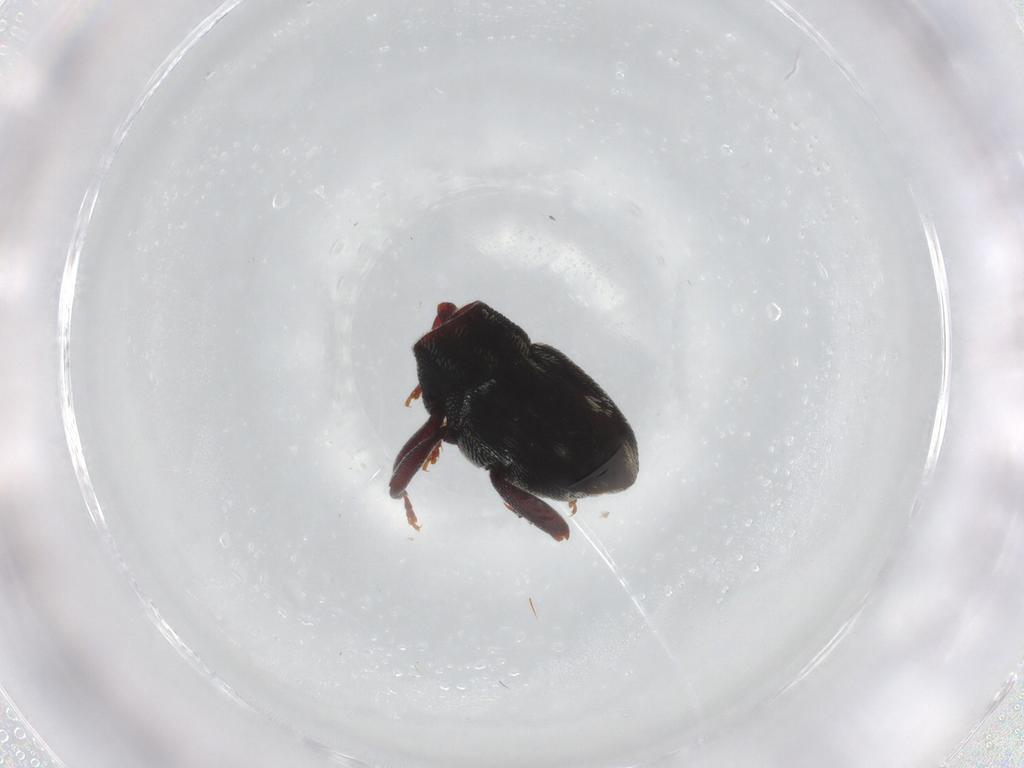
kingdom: Animalia
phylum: Arthropoda
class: Insecta
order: Coleoptera
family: Curculionidae
